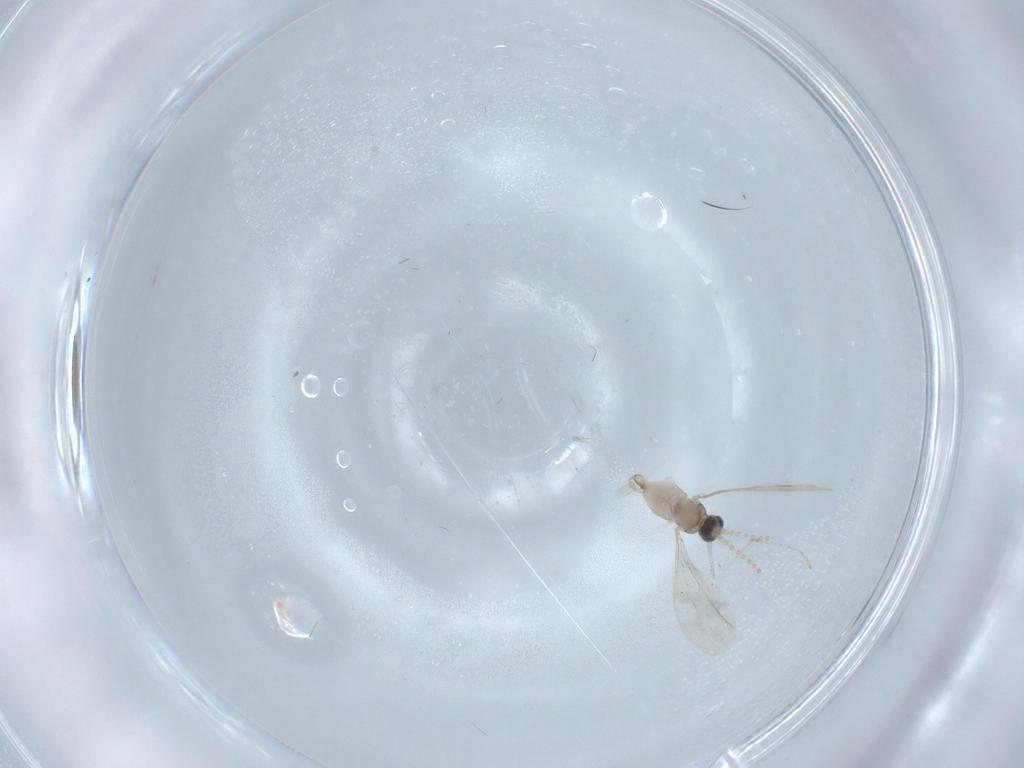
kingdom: Animalia
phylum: Arthropoda
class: Insecta
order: Diptera
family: Cecidomyiidae
